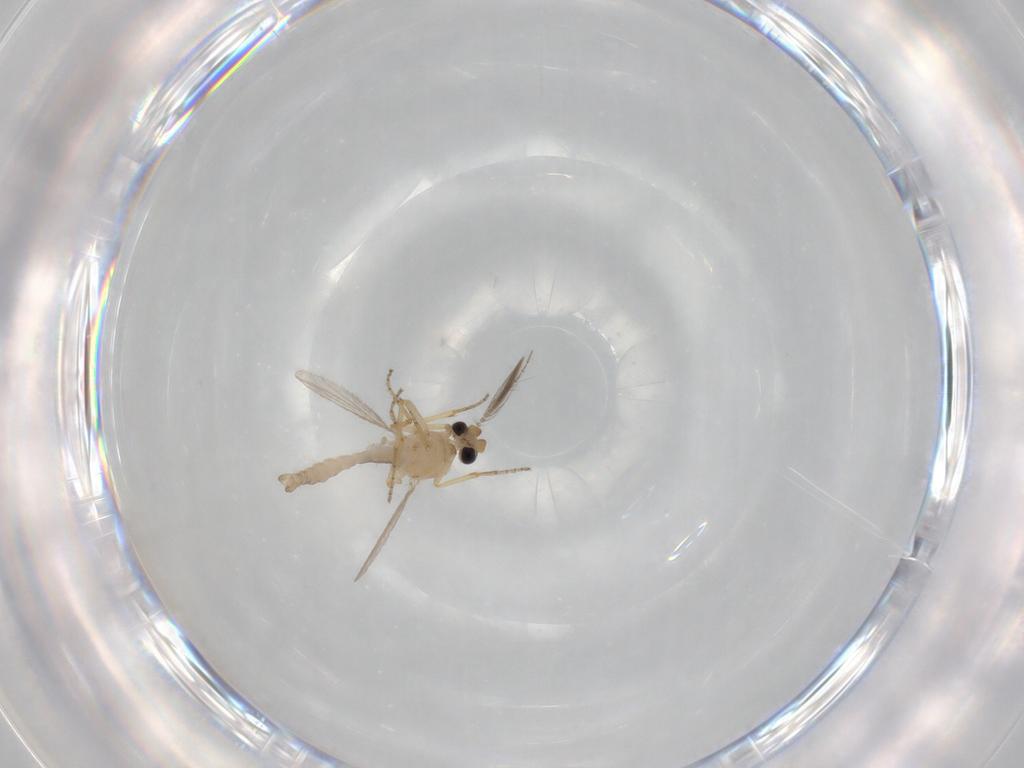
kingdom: Animalia
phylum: Arthropoda
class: Insecta
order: Diptera
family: Ceratopogonidae
